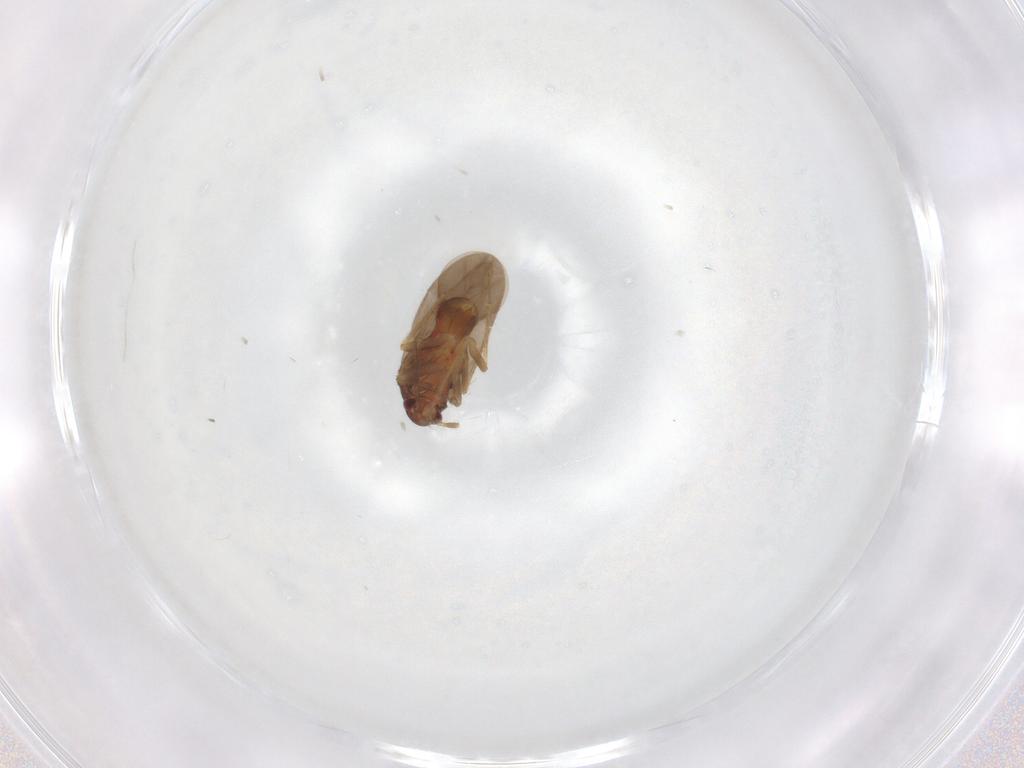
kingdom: Animalia
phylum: Arthropoda
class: Insecta
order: Hemiptera
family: Ceratocombidae
